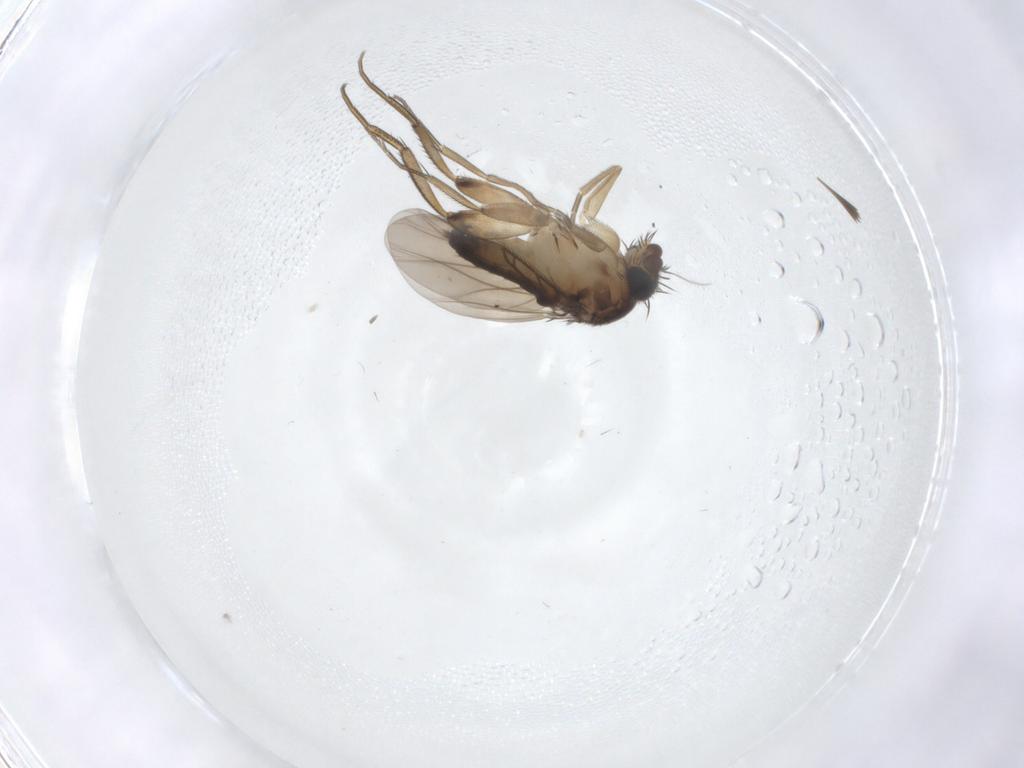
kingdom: Animalia
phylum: Arthropoda
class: Insecta
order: Diptera
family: Phoridae
